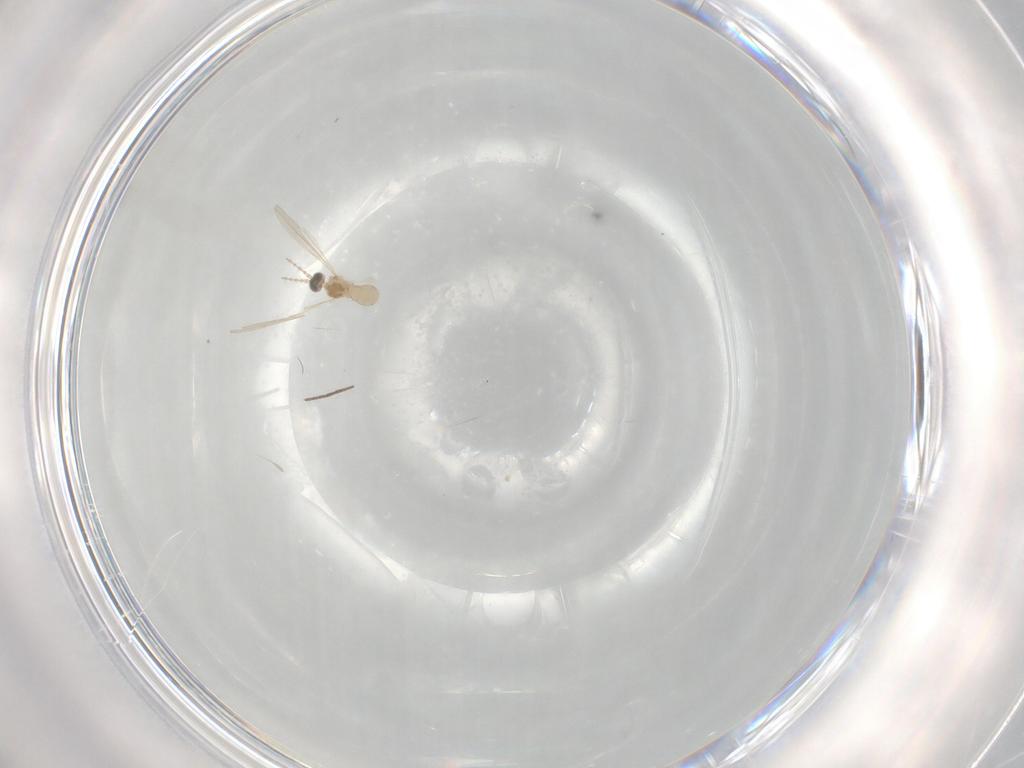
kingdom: Animalia
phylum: Arthropoda
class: Insecta
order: Diptera
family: Cecidomyiidae
